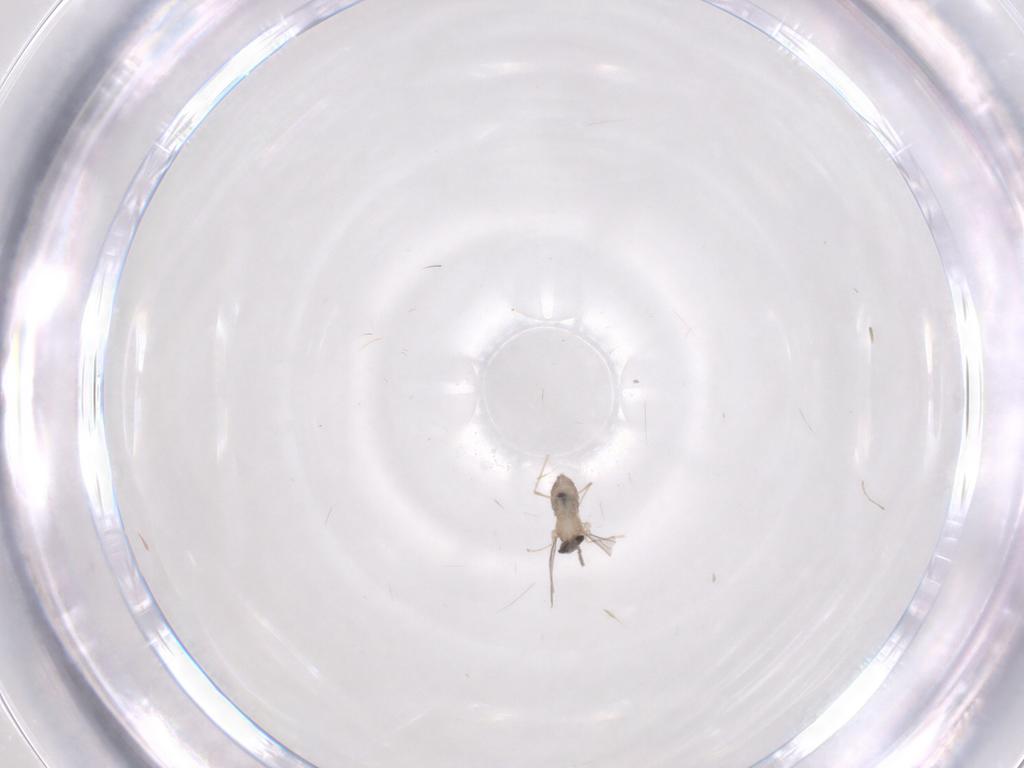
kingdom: Animalia
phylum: Arthropoda
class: Insecta
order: Diptera
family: Cecidomyiidae
